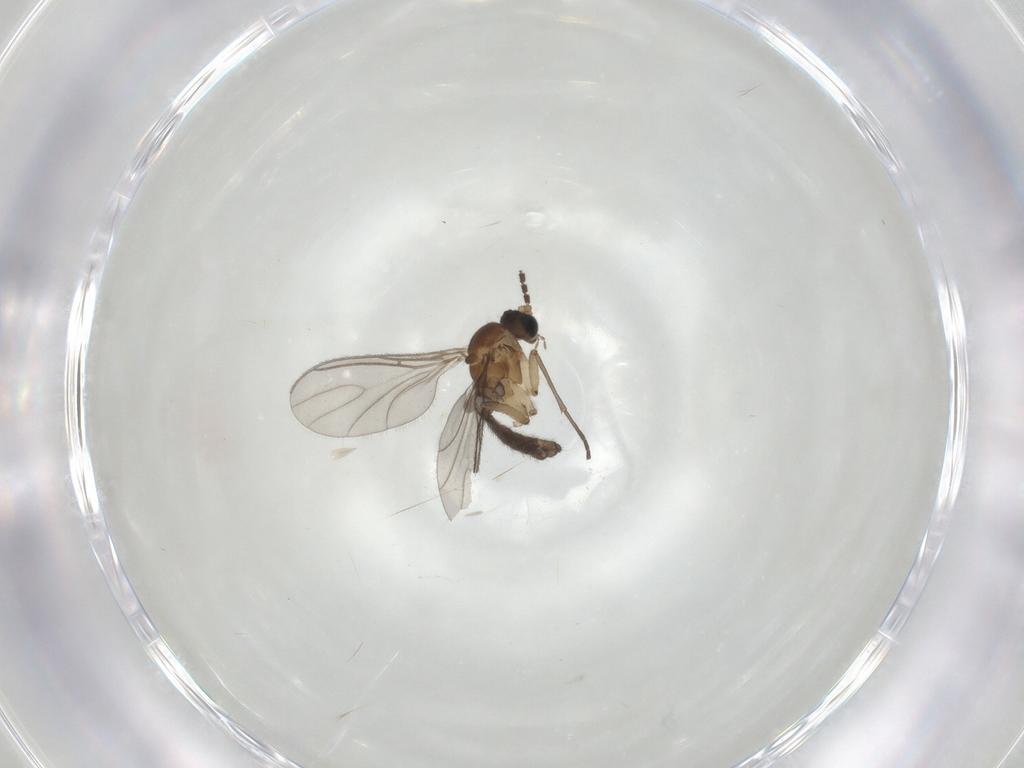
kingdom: Animalia
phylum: Arthropoda
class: Insecta
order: Diptera
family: Sciaridae
